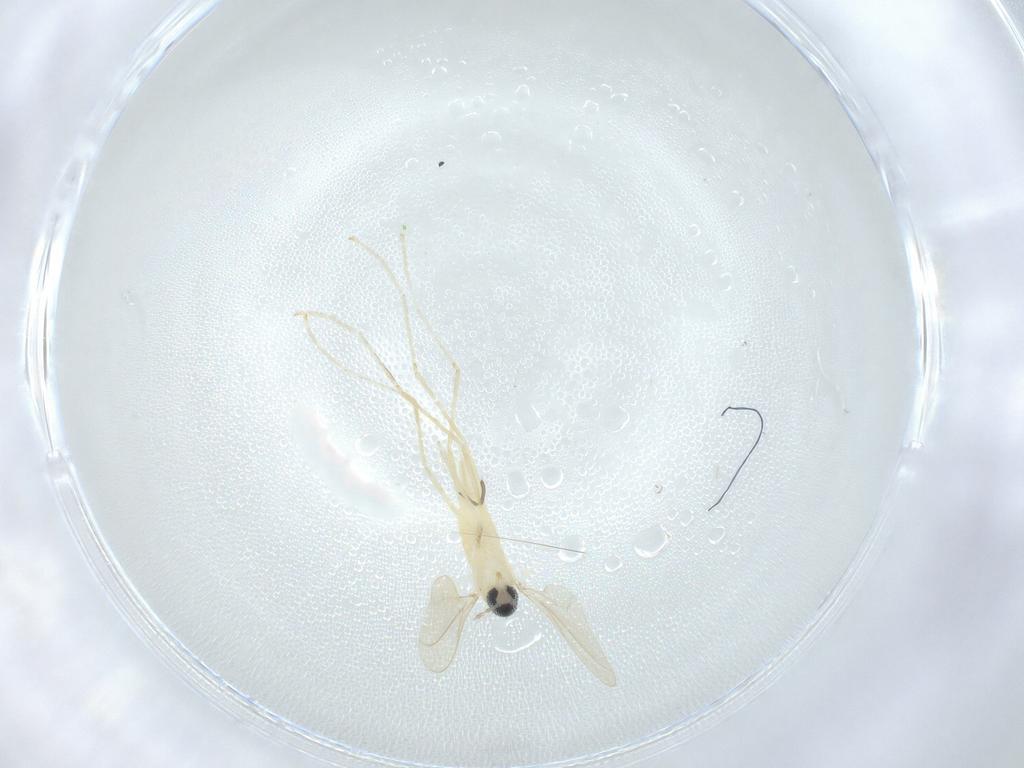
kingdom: Animalia
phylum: Arthropoda
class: Insecta
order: Diptera
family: Limoniidae
